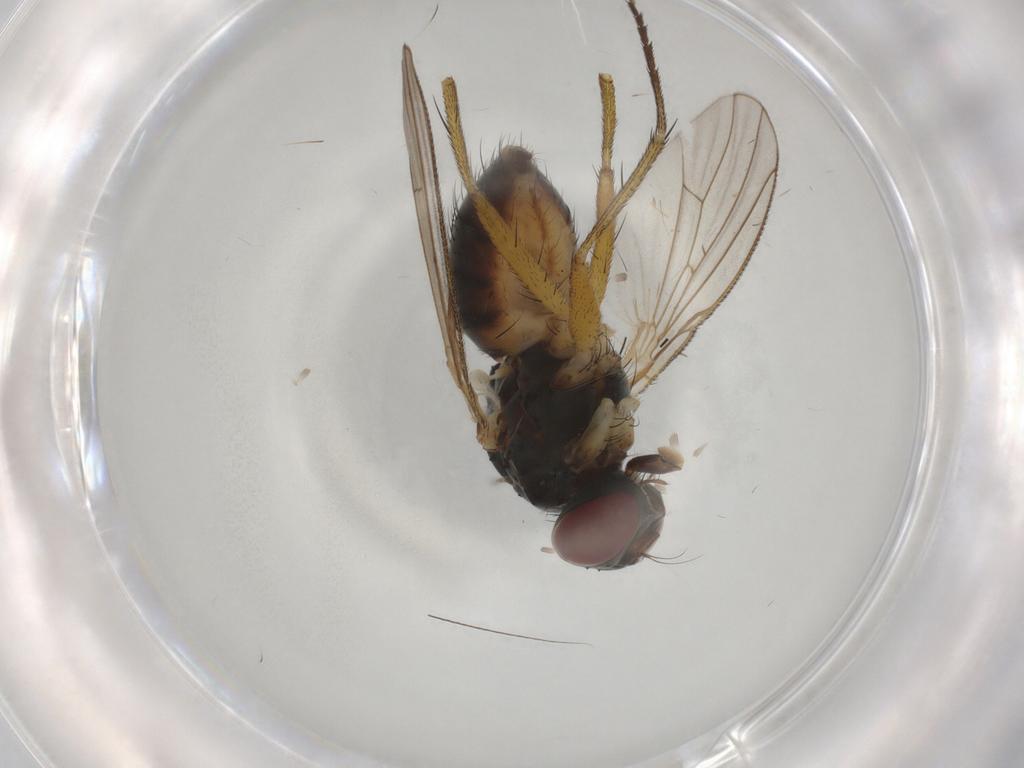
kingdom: Animalia
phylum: Arthropoda
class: Insecta
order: Diptera
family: Muscidae
